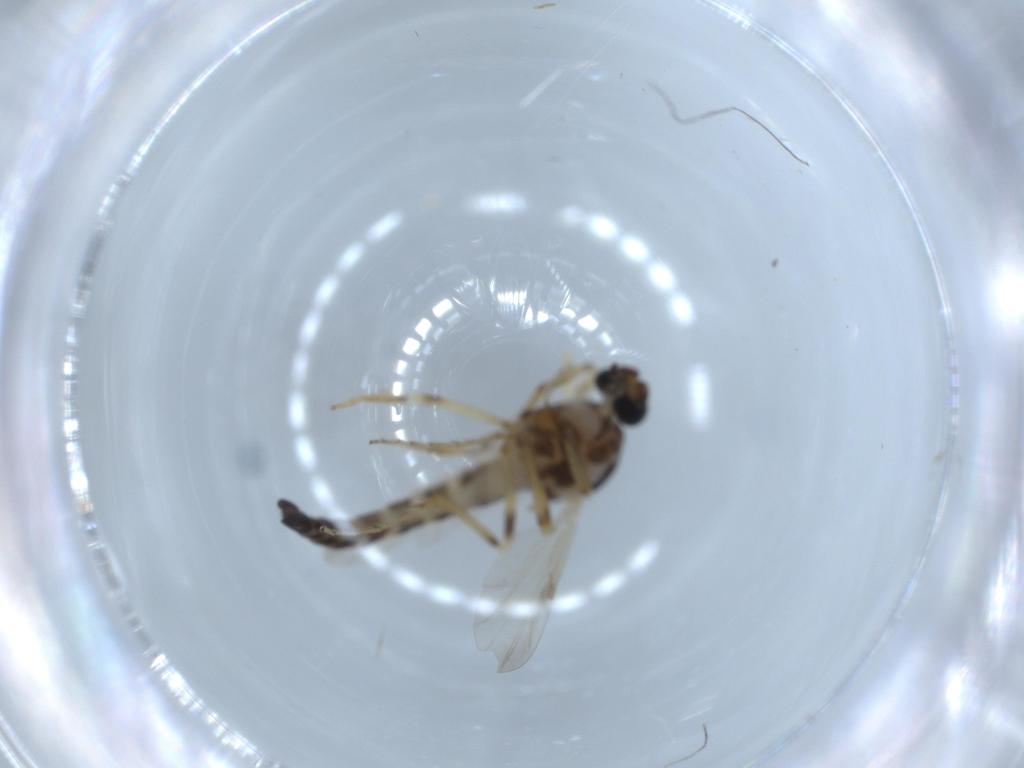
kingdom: Animalia
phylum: Arthropoda
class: Insecta
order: Diptera
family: Ceratopogonidae
